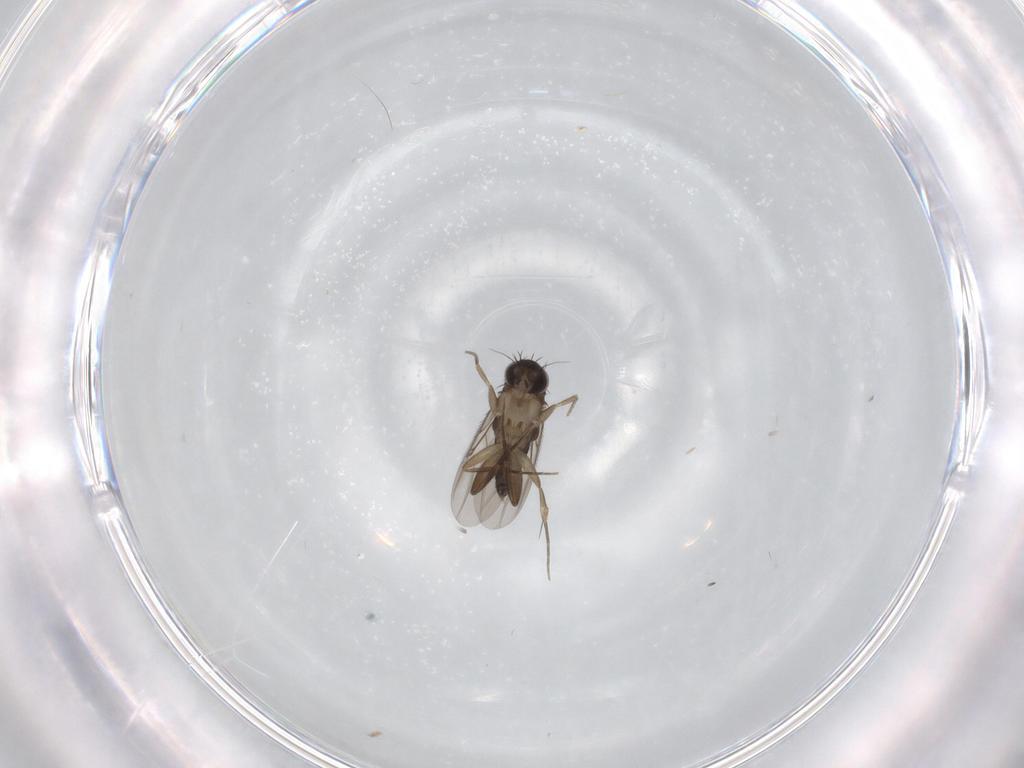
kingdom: Animalia
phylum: Arthropoda
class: Insecta
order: Diptera
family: Phoridae
